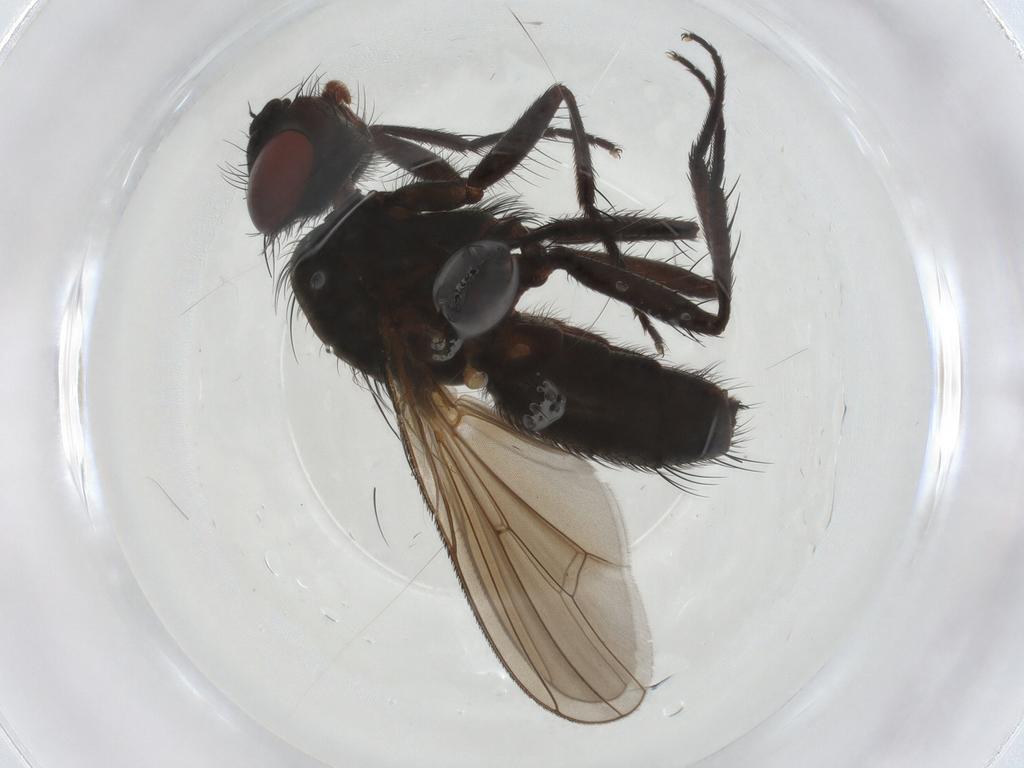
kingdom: Animalia
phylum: Arthropoda
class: Insecta
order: Diptera
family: Anthomyiidae
